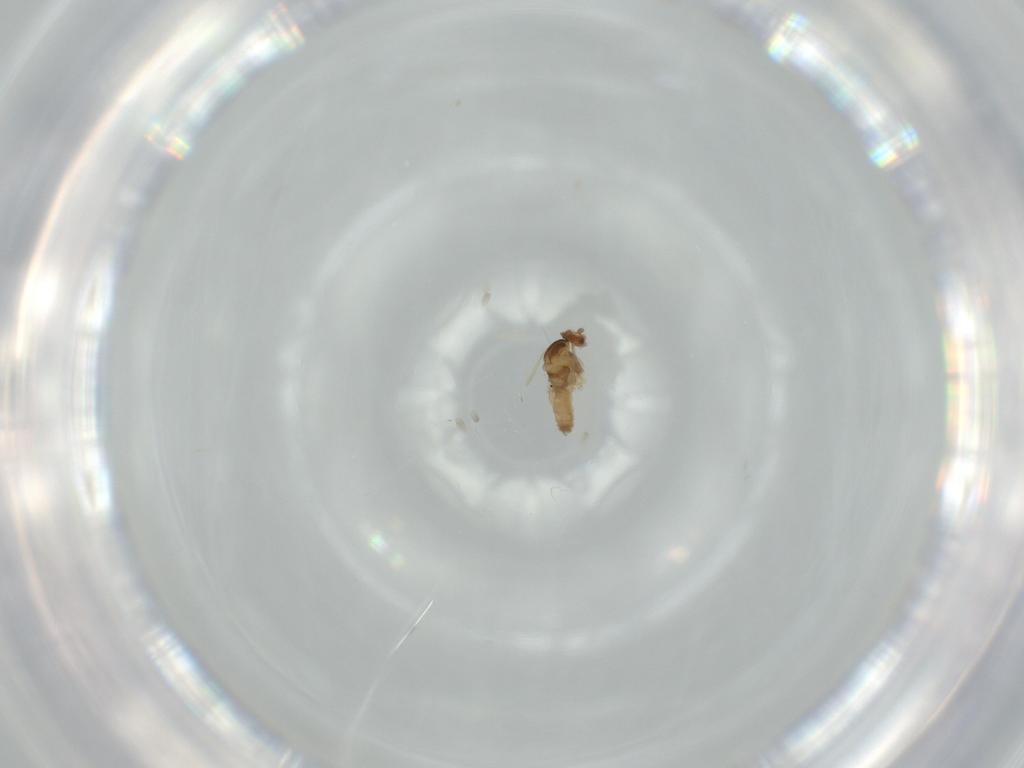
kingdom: Animalia
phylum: Arthropoda
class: Insecta
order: Diptera
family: Cecidomyiidae
